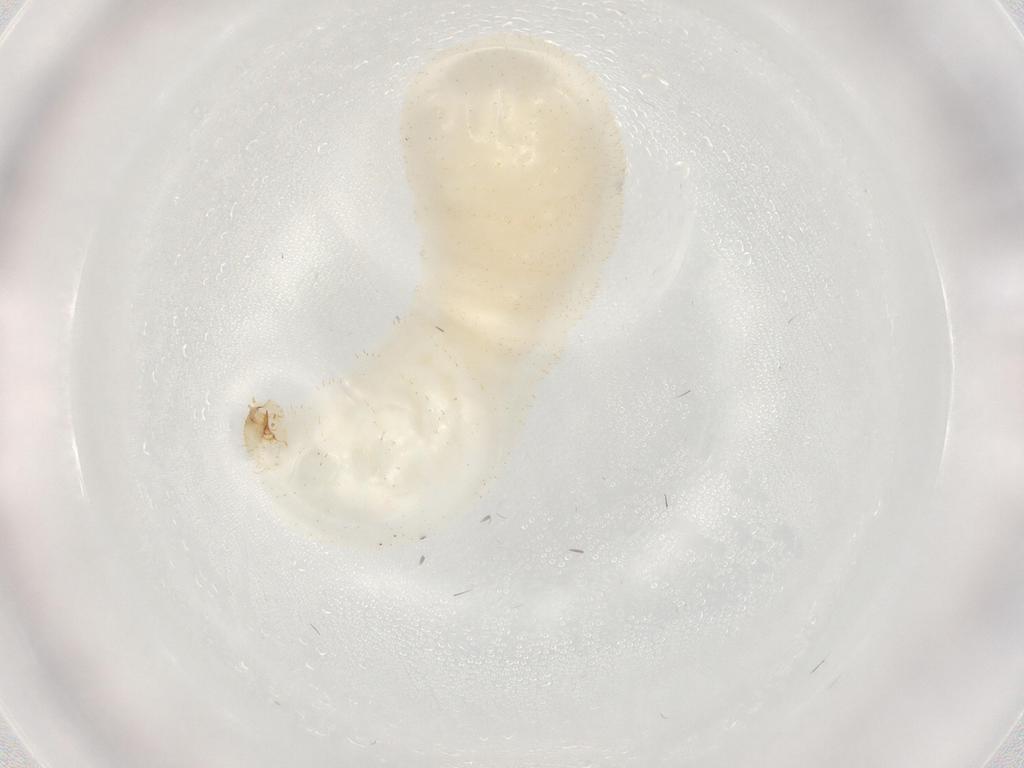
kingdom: Animalia
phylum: Arthropoda
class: Insecta
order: Hymenoptera
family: Formicidae
